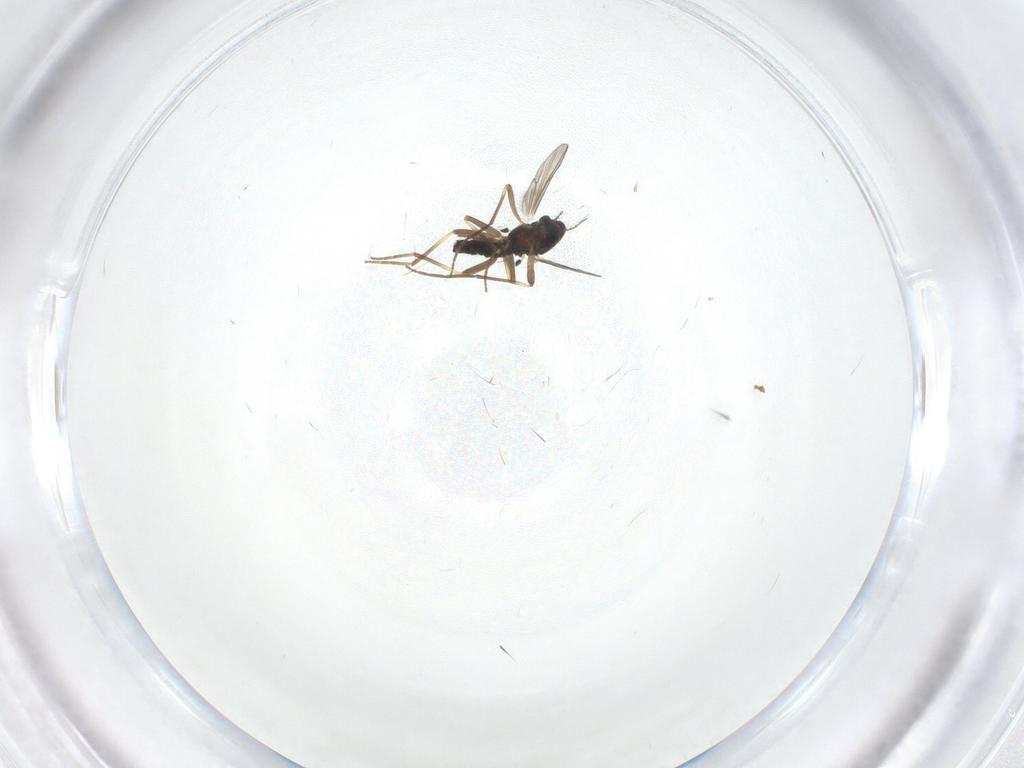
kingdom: Animalia
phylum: Arthropoda
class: Insecta
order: Diptera
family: Chironomidae
